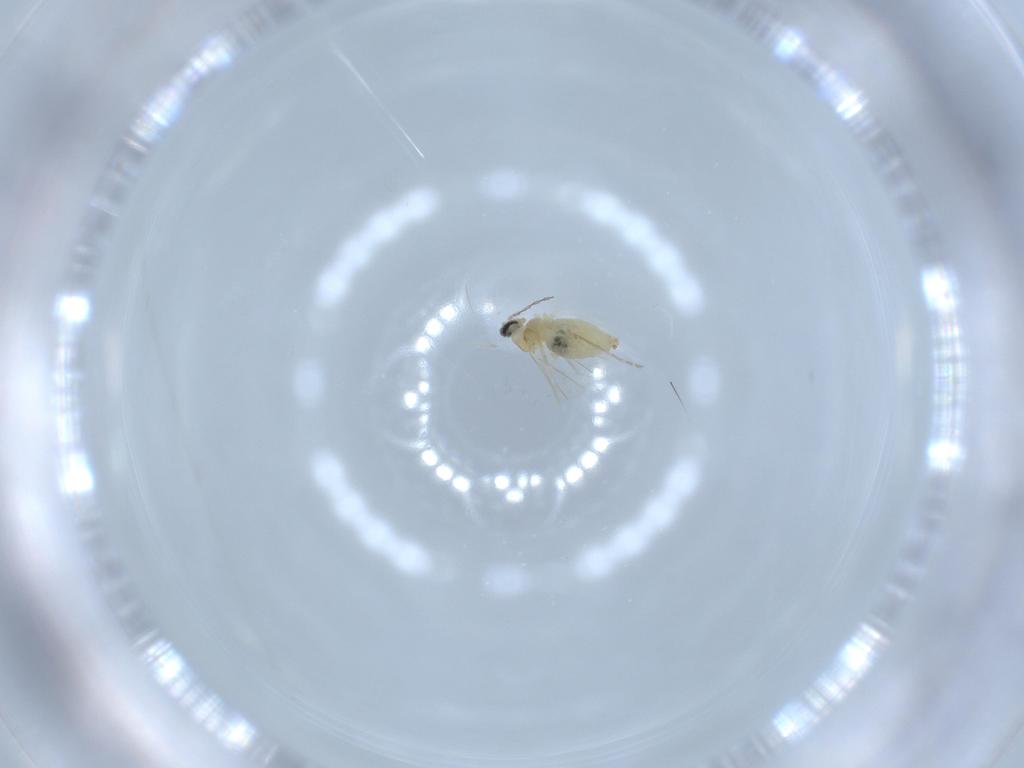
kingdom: Animalia
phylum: Arthropoda
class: Insecta
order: Diptera
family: Cecidomyiidae
